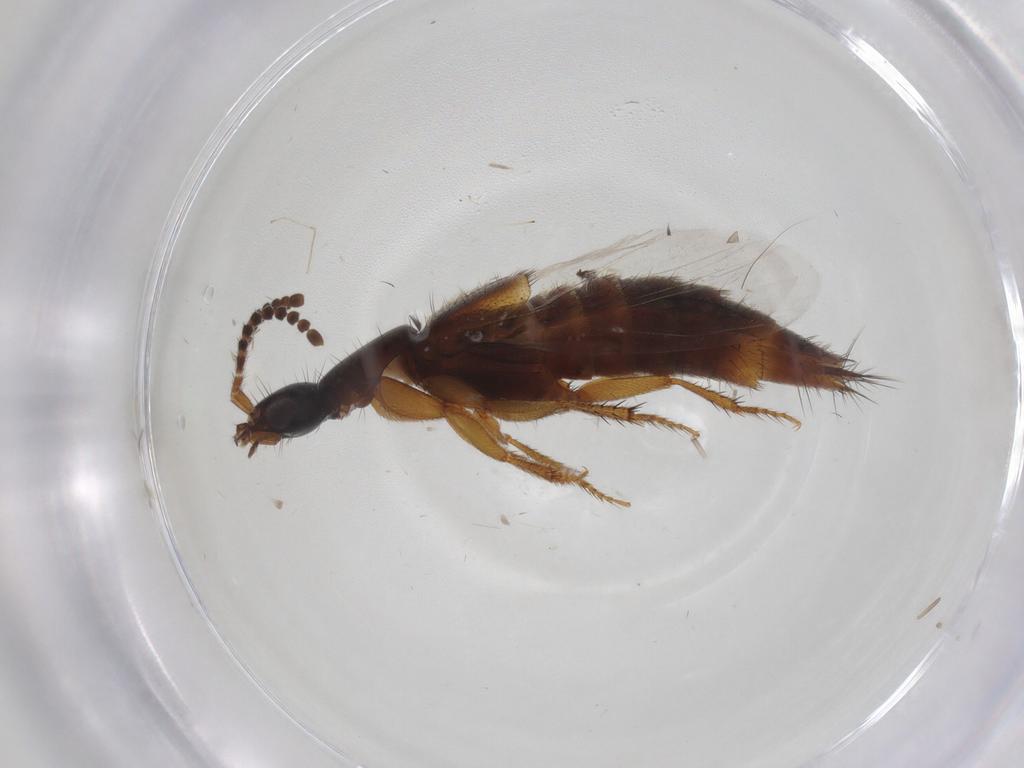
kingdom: Animalia
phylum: Arthropoda
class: Insecta
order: Coleoptera
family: Staphylinidae
